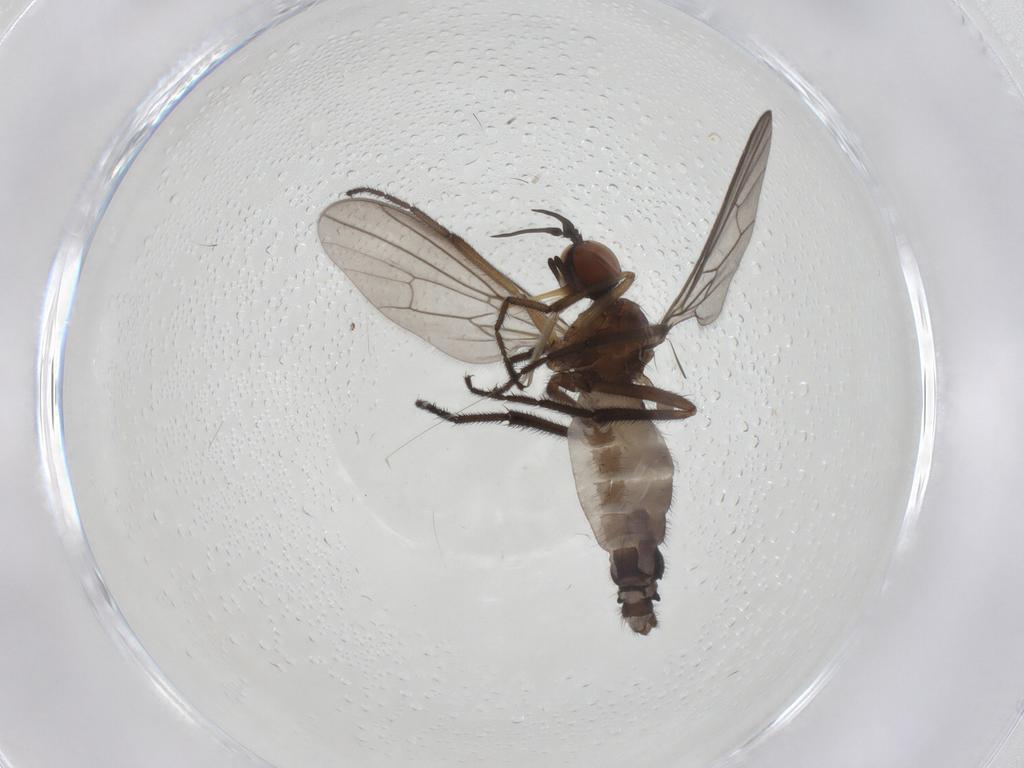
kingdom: Animalia
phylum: Arthropoda
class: Insecta
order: Diptera
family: Empididae
